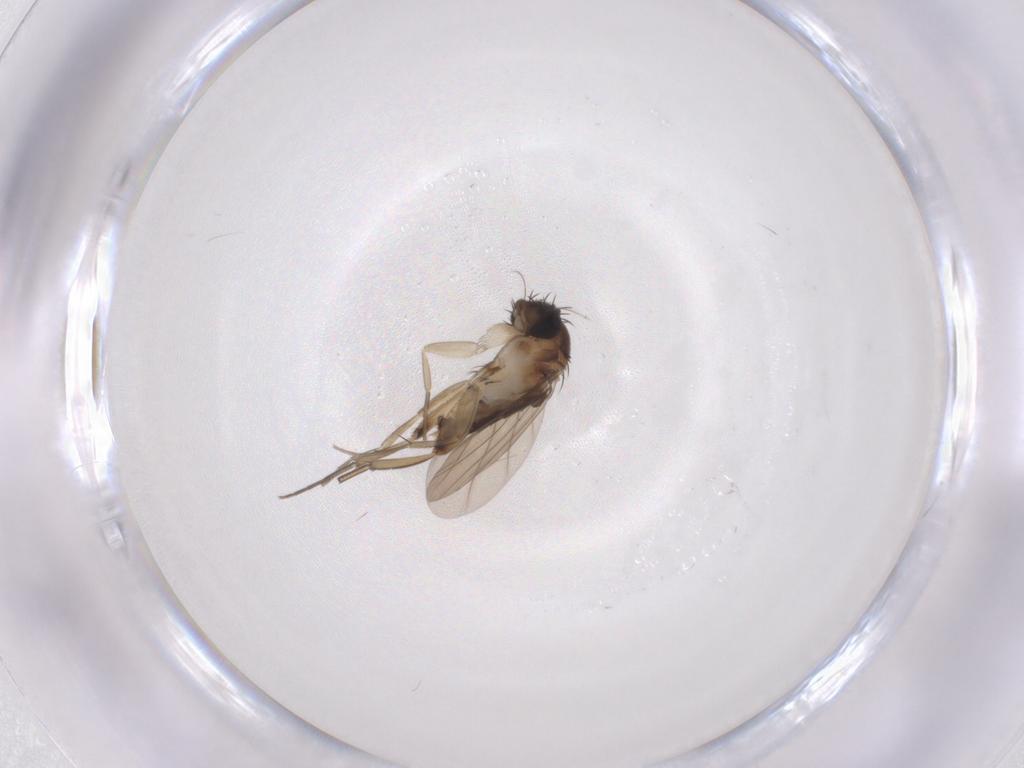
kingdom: Animalia
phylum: Arthropoda
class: Insecta
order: Diptera
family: Phoridae
